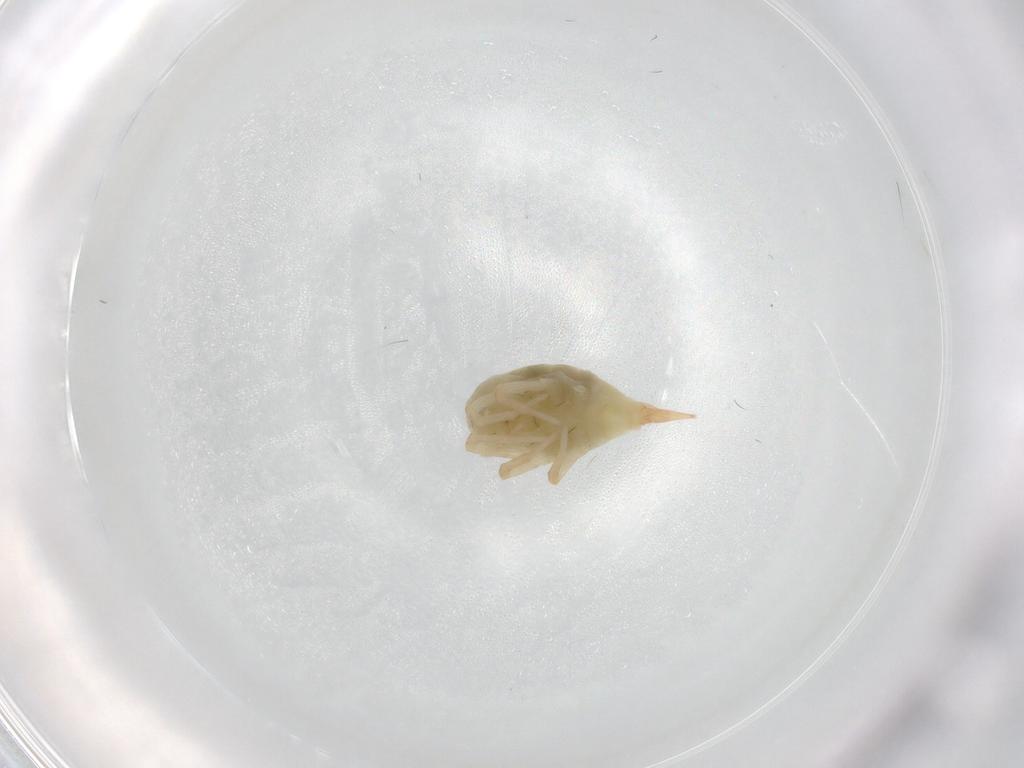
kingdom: Animalia
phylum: Arthropoda
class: Arachnida
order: Trombidiformes
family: Bdellidae
